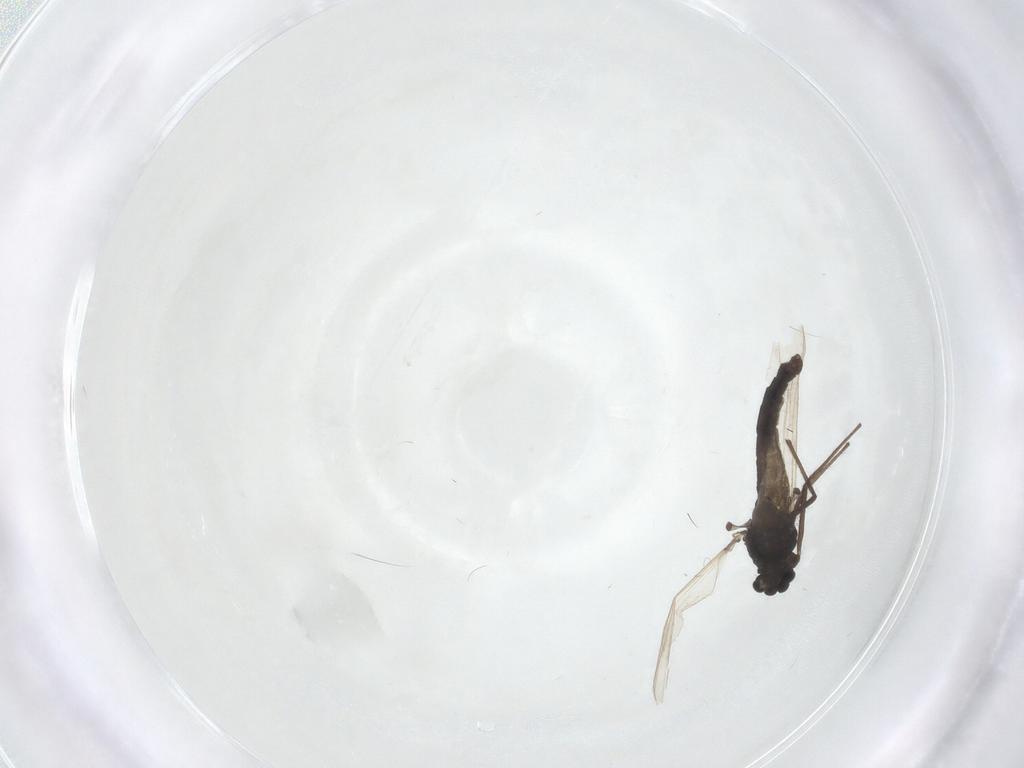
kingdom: Animalia
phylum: Arthropoda
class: Insecta
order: Diptera
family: Chironomidae
